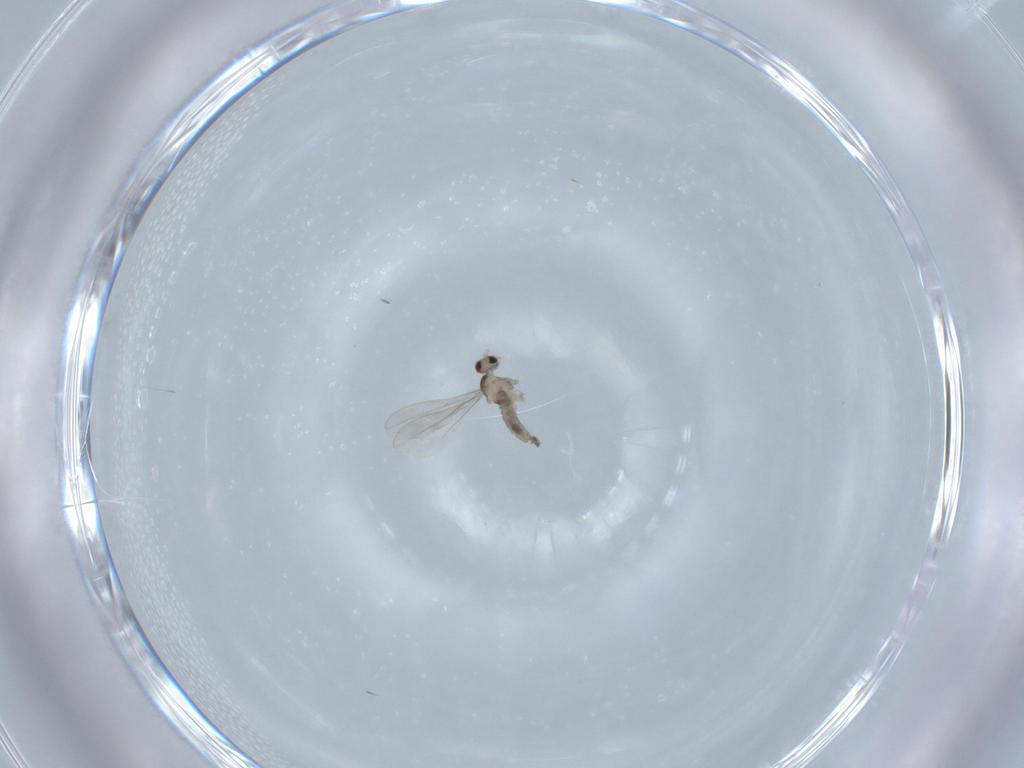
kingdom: Animalia
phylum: Arthropoda
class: Insecta
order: Diptera
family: Cecidomyiidae
